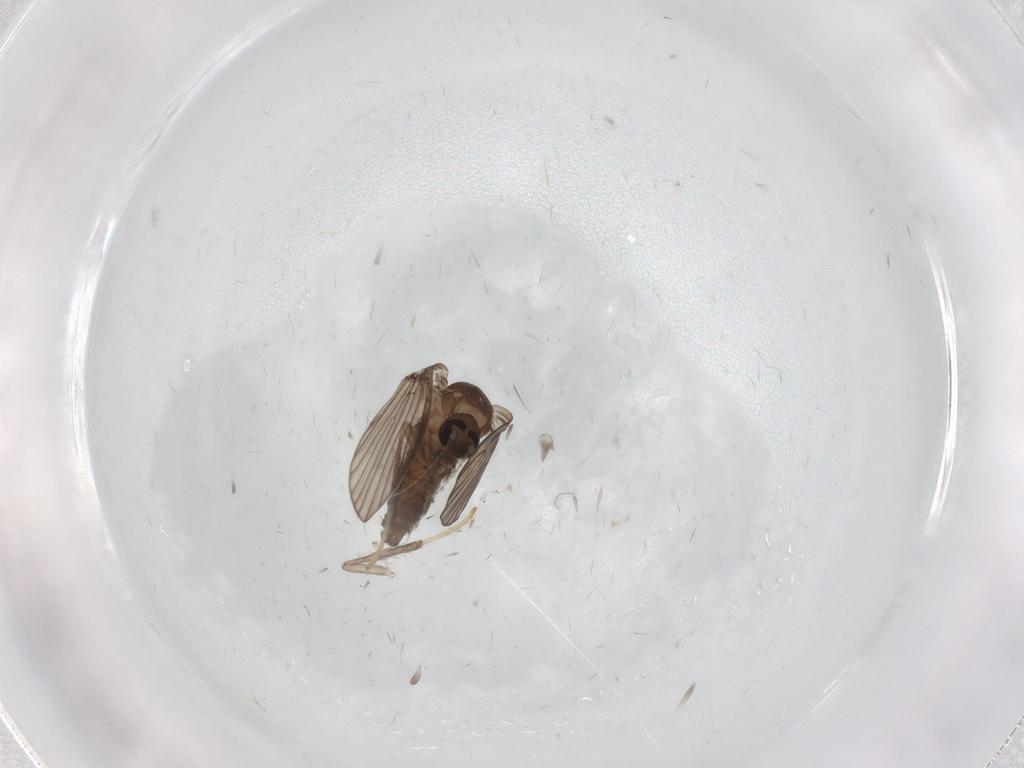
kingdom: Animalia
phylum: Arthropoda
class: Insecta
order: Diptera
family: Psychodidae
